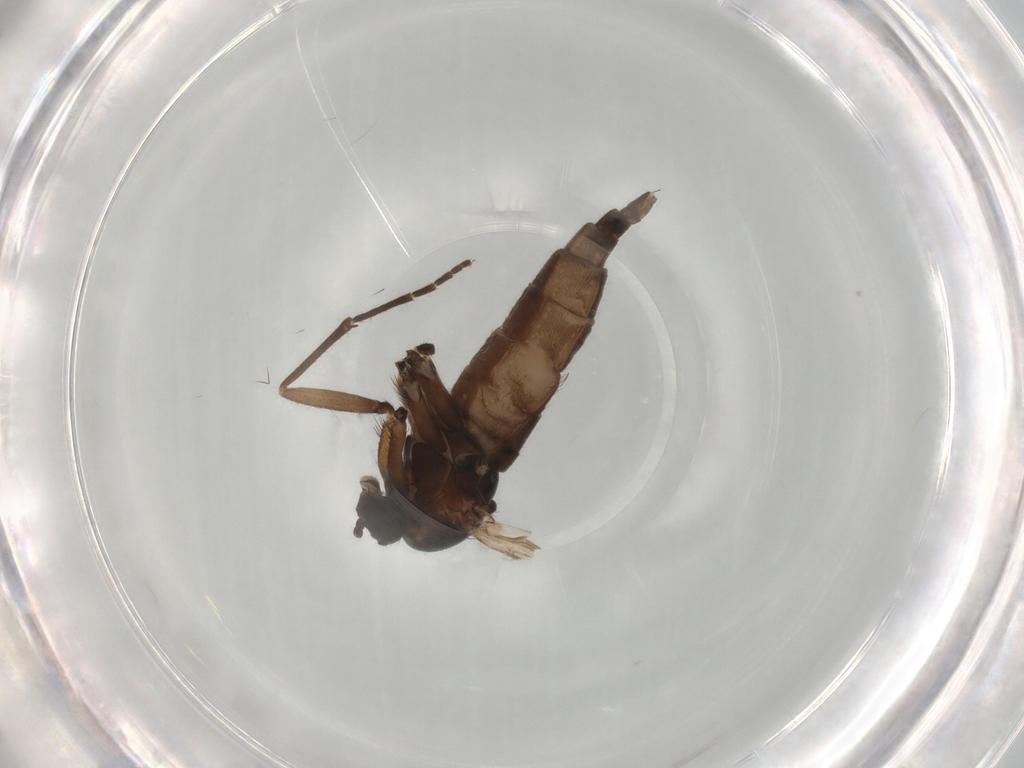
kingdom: Animalia
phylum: Arthropoda
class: Insecta
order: Diptera
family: Sciaridae
